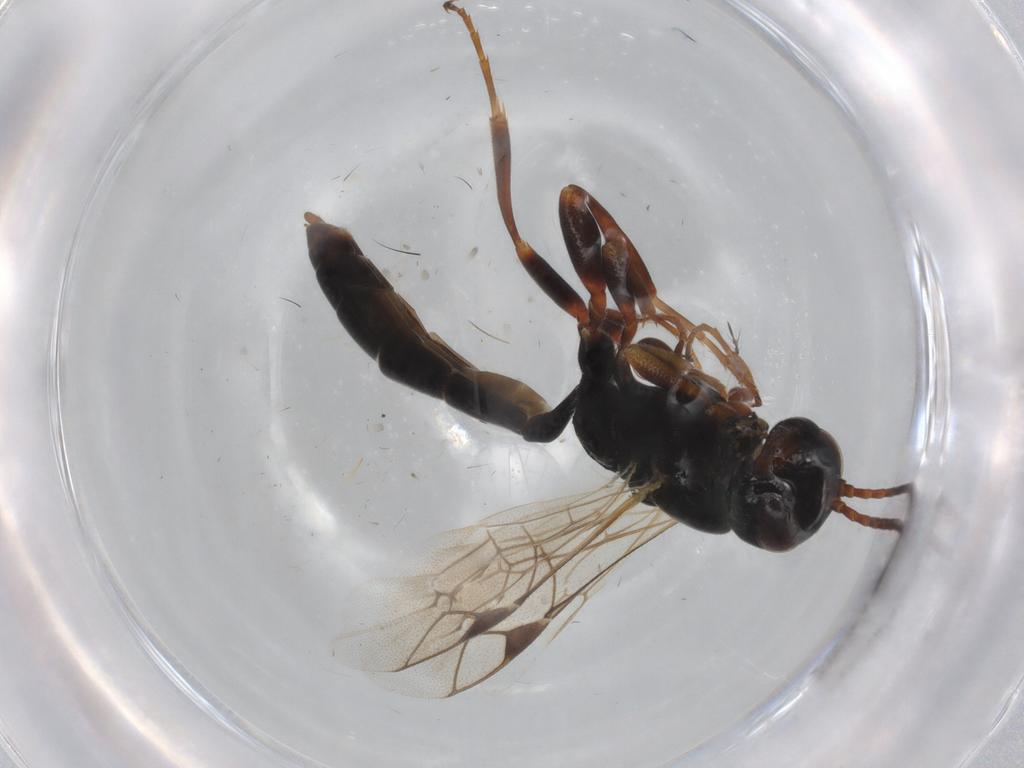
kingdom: Animalia
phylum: Arthropoda
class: Insecta
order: Hymenoptera
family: Ichneumonidae
